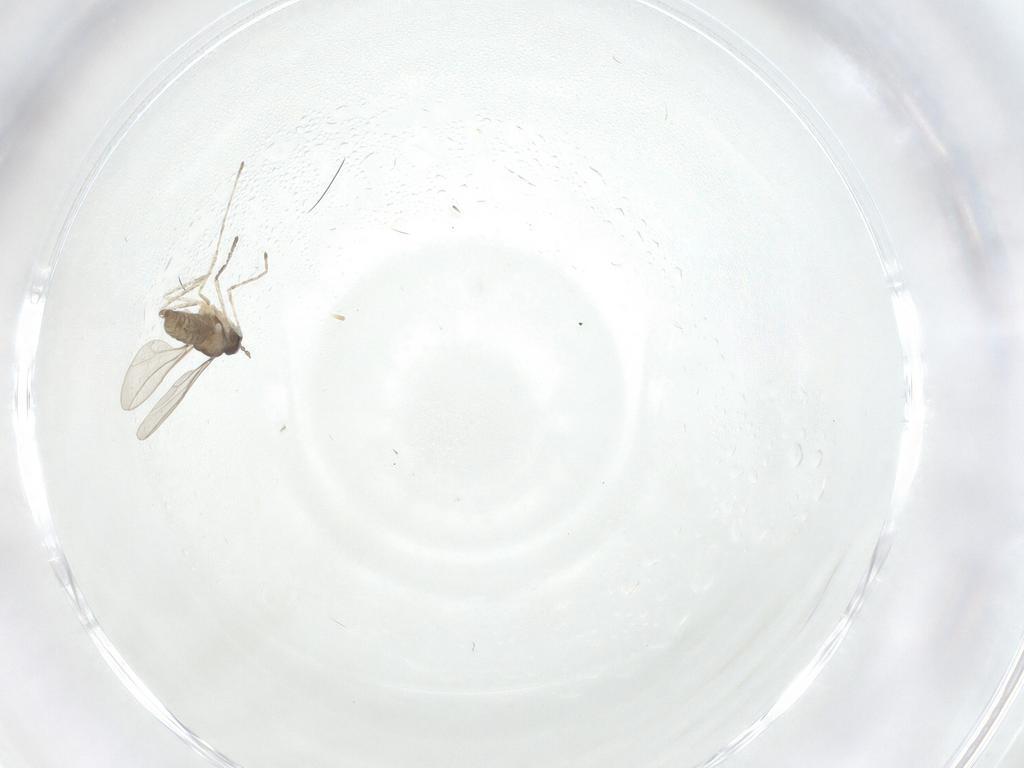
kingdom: Animalia
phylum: Arthropoda
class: Insecta
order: Diptera
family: Cecidomyiidae
